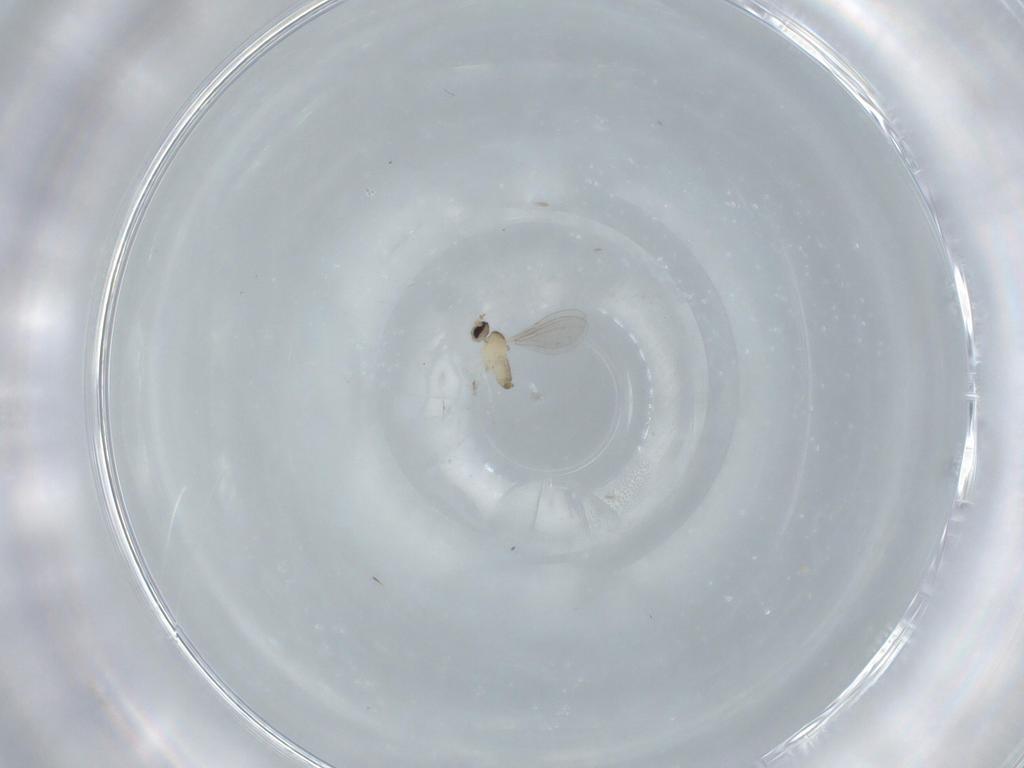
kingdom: Animalia
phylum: Arthropoda
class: Insecta
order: Diptera
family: Cecidomyiidae
